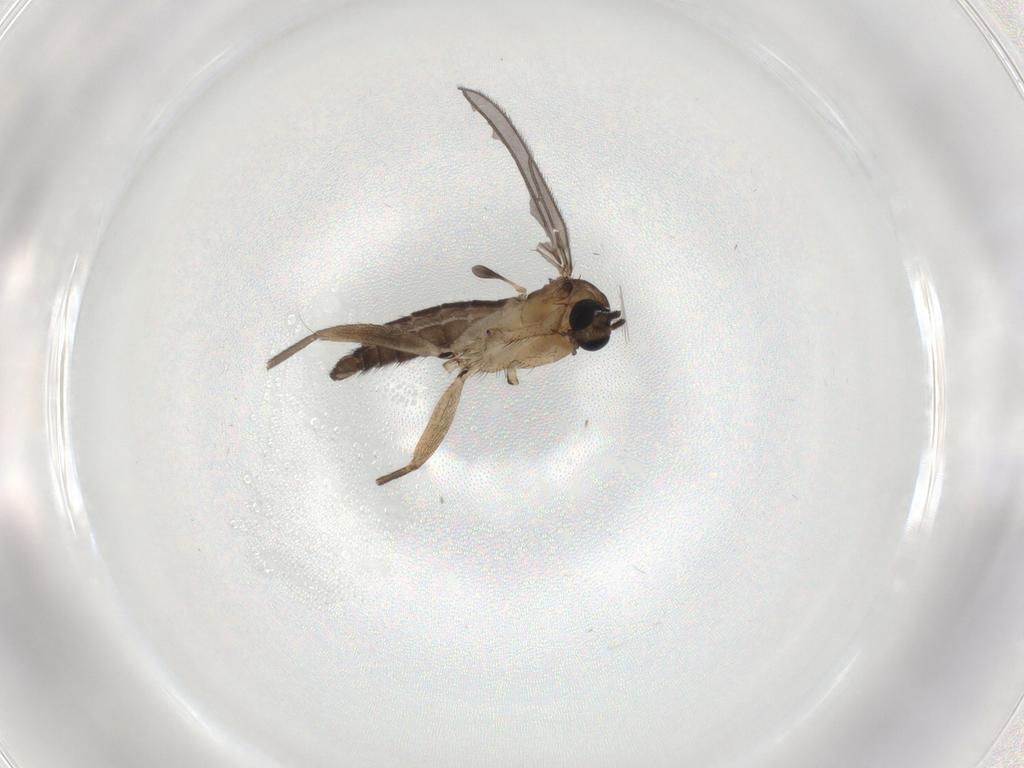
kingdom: Animalia
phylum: Arthropoda
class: Insecta
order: Diptera
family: Sciaridae
